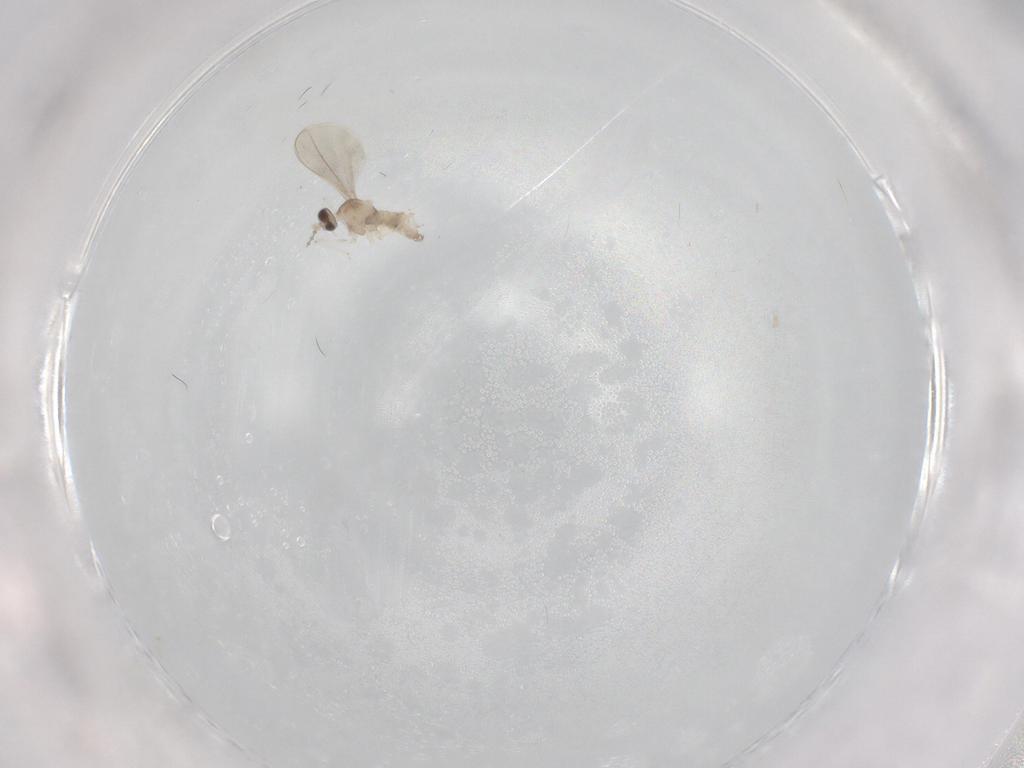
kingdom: Animalia
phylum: Arthropoda
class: Insecta
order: Diptera
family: Cecidomyiidae
